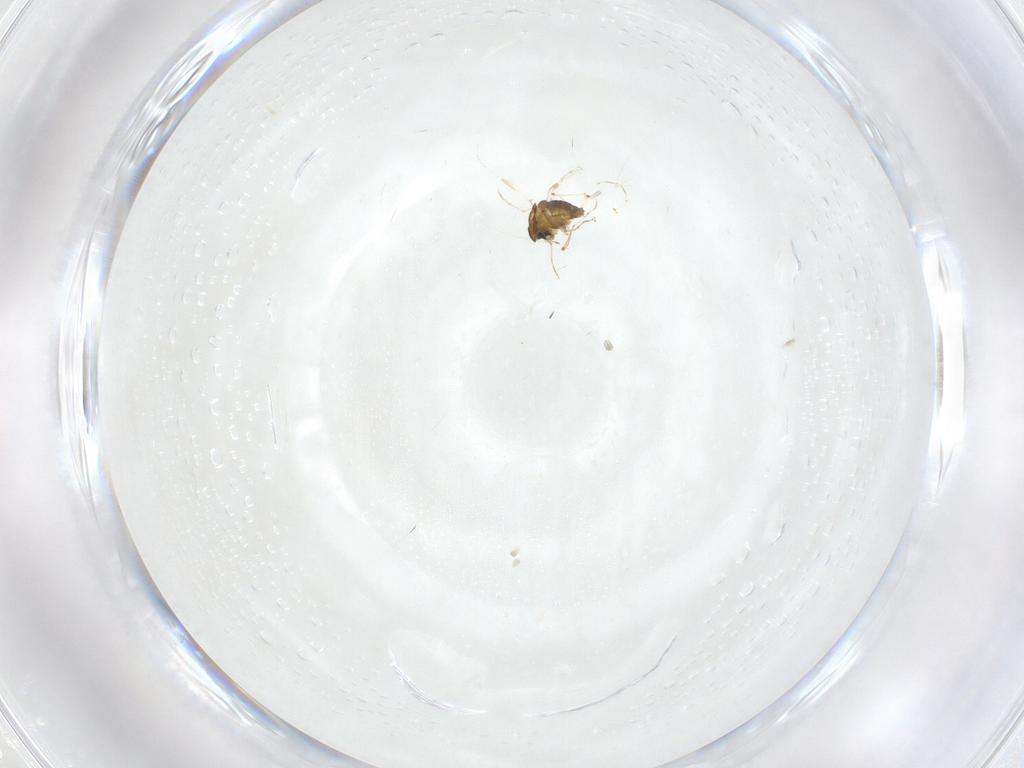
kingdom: Animalia
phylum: Arthropoda
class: Insecta
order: Diptera
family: Chironomidae
